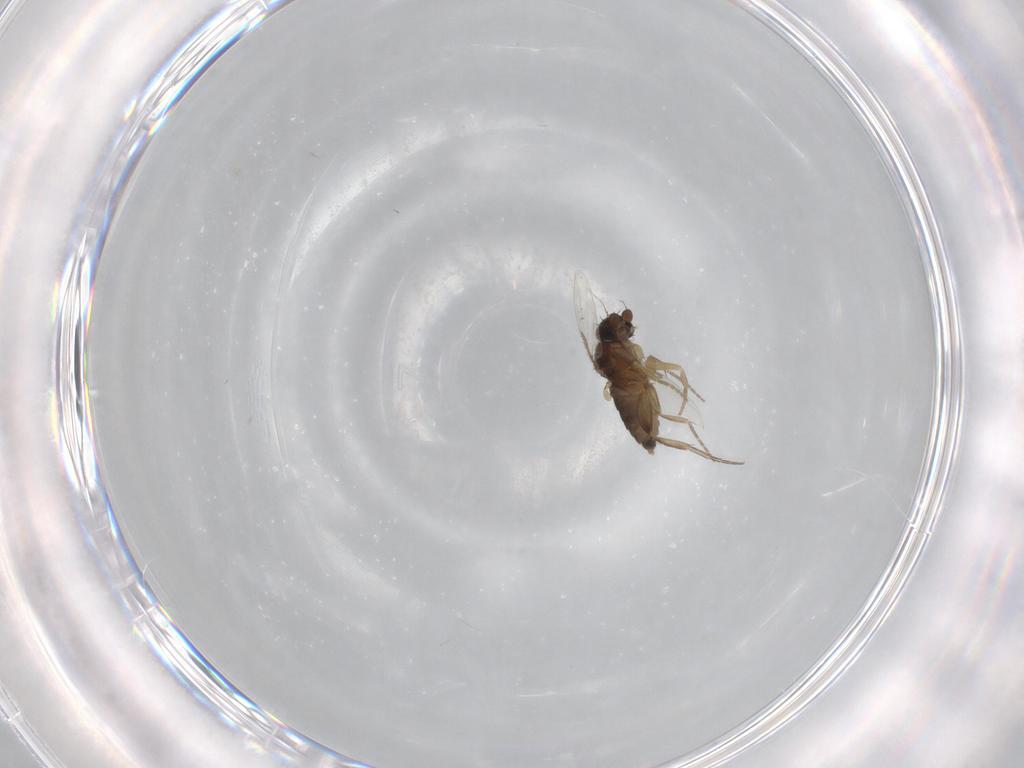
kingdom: Animalia
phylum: Arthropoda
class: Insecta
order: Diptera
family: Phoridae
